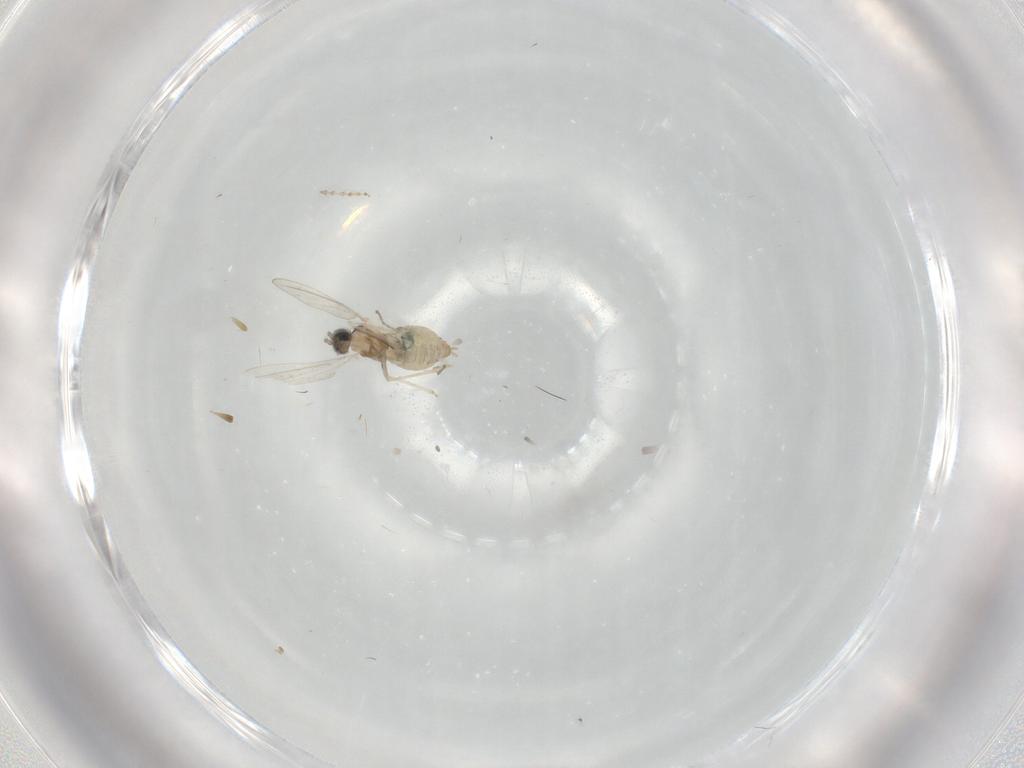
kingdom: Animalia
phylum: Arthropoda
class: Insecta
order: Diptera
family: Cecidomyiidae
